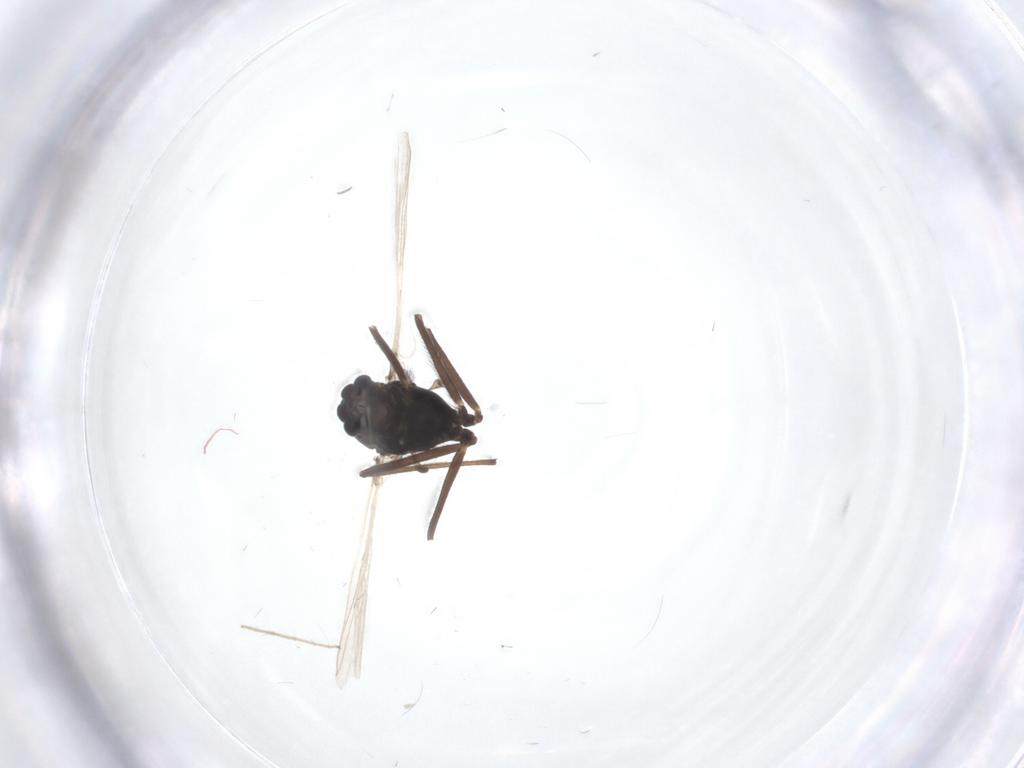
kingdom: Animalia
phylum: Arthropoda
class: Insecta
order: Diptera
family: Chironomidae
